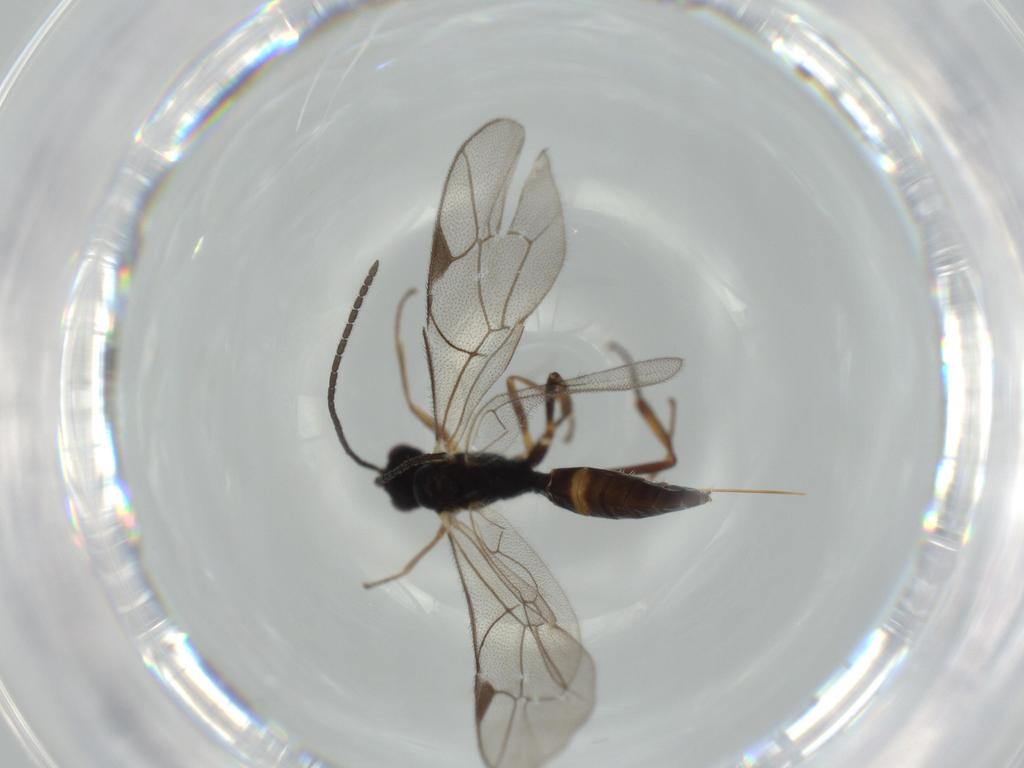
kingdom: Animalia
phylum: Arthropoda
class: Insecta
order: Hymenoptera
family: Ichneumonidae
